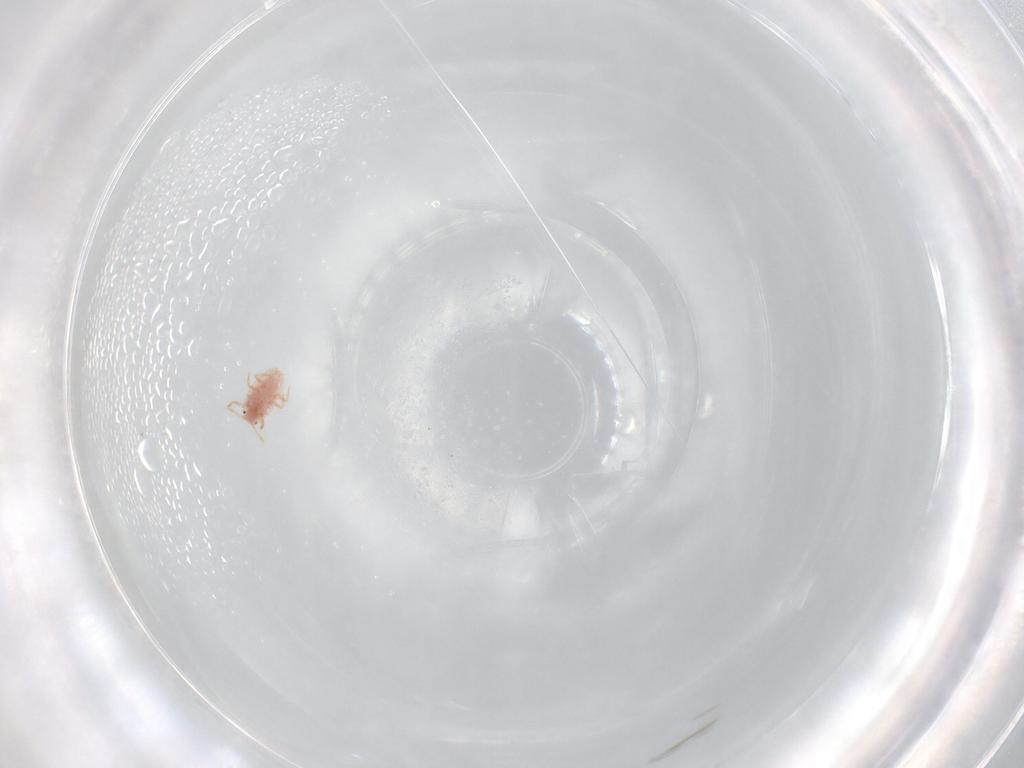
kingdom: Animalia
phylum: Arthropoda
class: Insecta
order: Hemiptera
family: Cicadellidae
